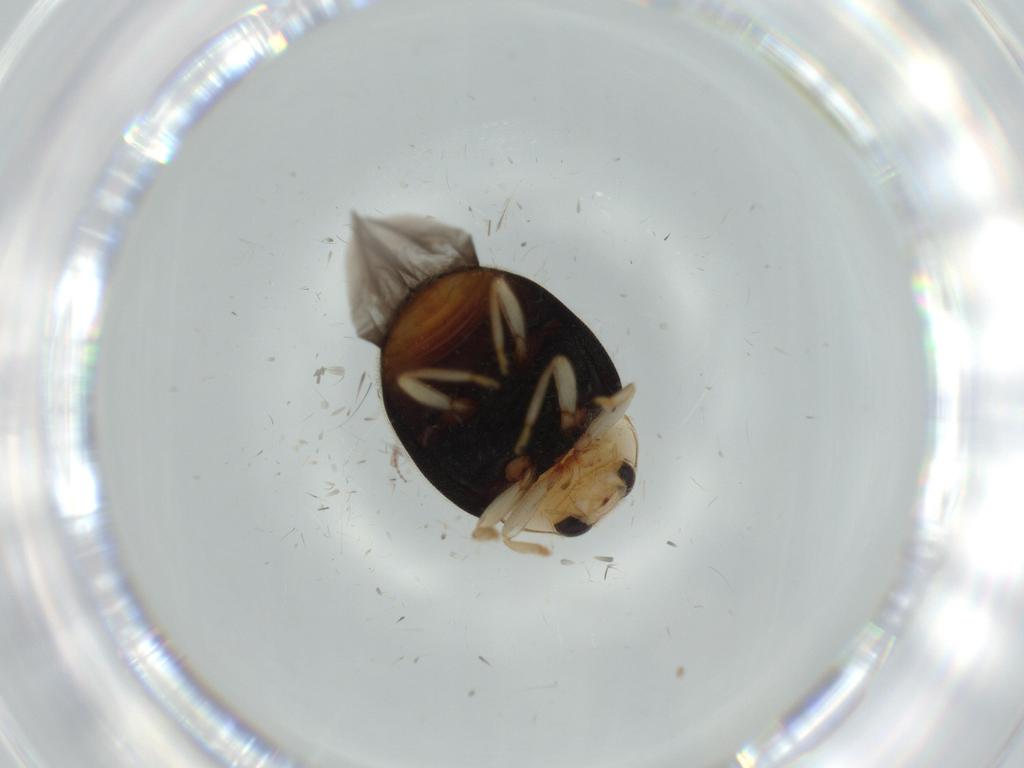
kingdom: Animalia
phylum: Arthropoda
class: Insecta
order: Coleoptera
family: Coccinellidae
